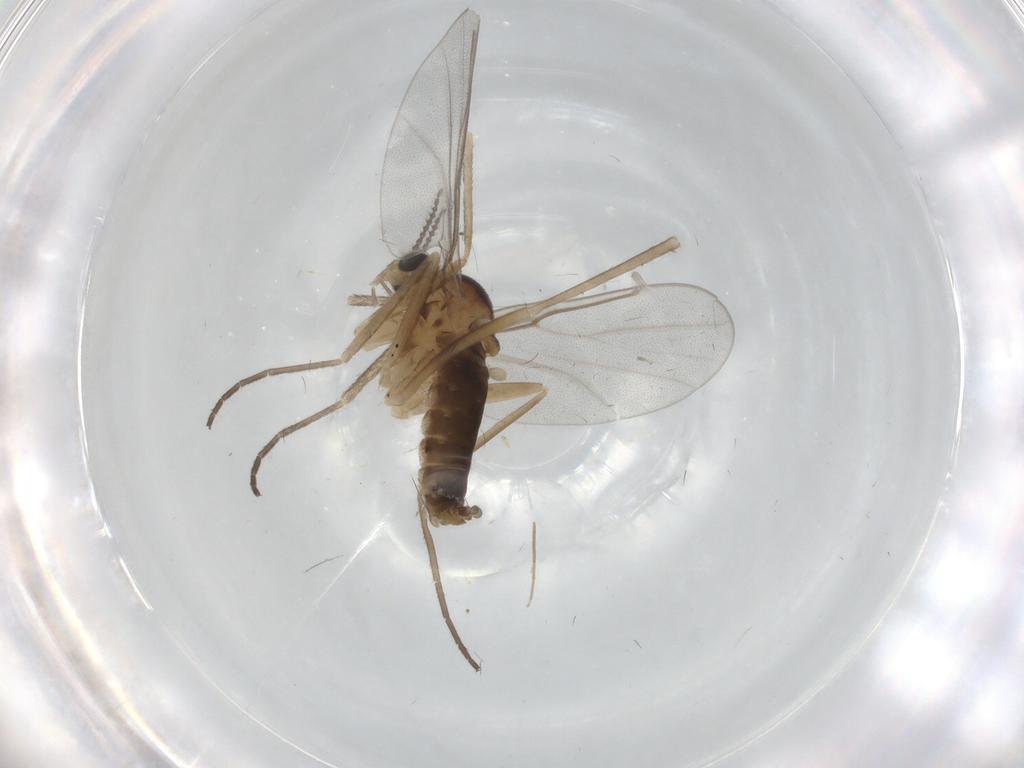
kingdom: Animalia
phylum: Arthropoda
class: Insecta
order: Diptera
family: Cecidomyiidae
